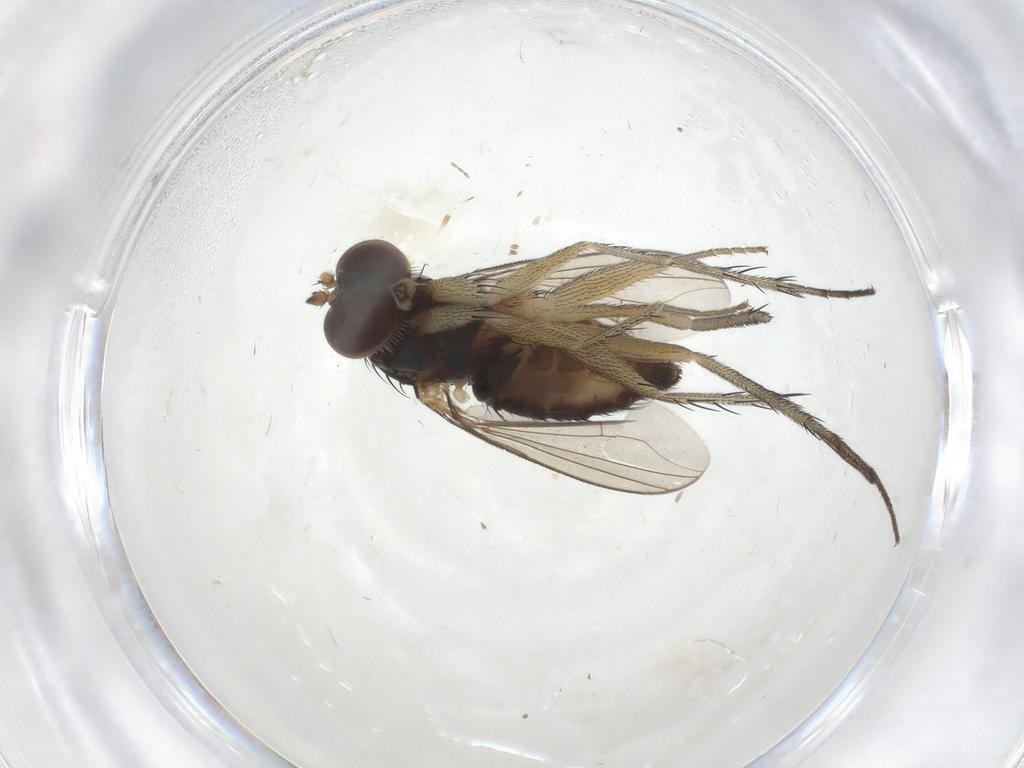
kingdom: Animalia
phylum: Arthropoda
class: Insecta
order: Diptera
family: Dolichopodidae
